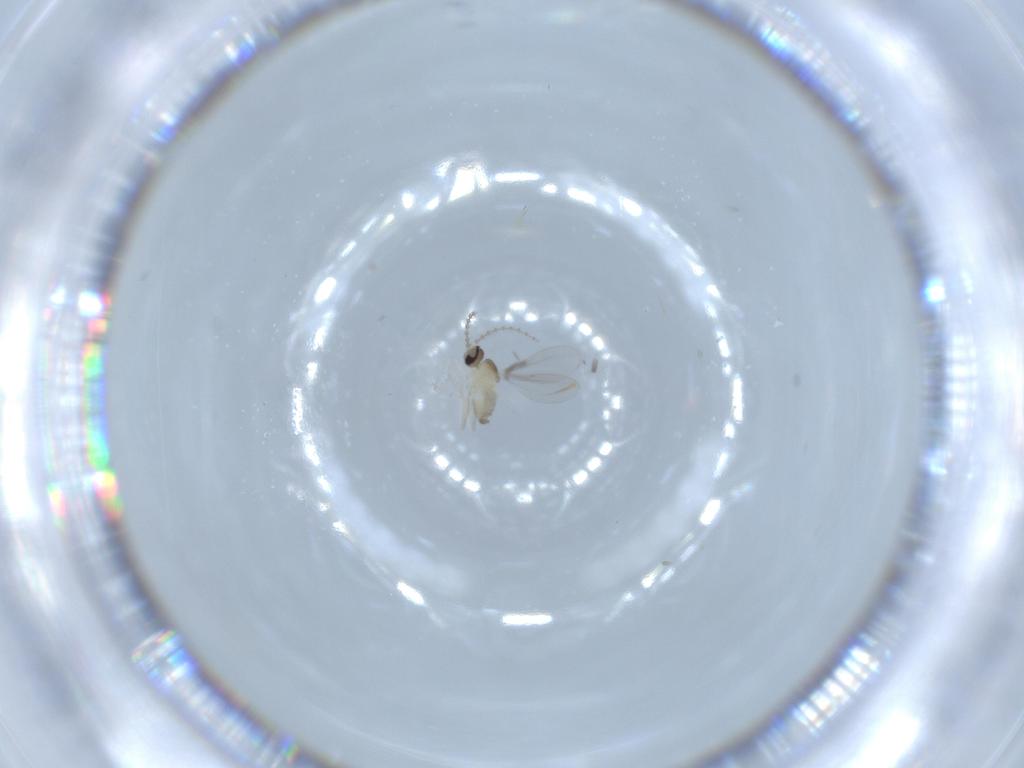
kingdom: Animalia
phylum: Arthropoda
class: Insecta
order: Diptera
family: Cecidomyiidae
